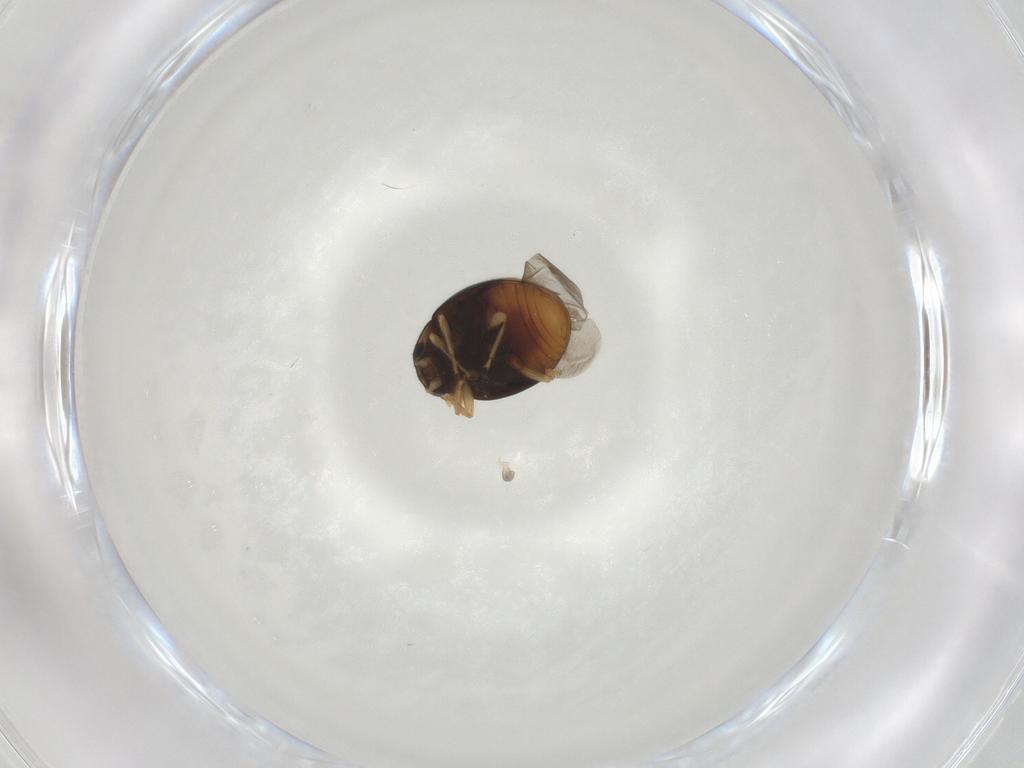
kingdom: Animalia
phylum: Arthropoda
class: Insecta
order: Coleoptera
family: Coccinellidae
